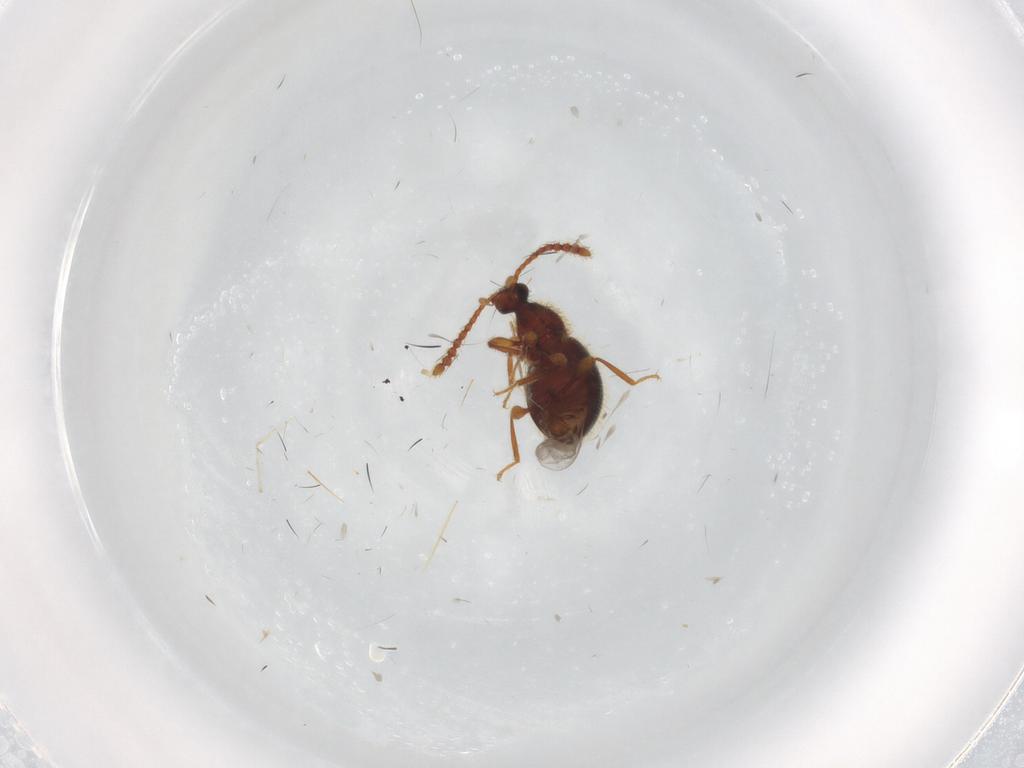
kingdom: Animalia
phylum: Arthropoda
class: Insecta
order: Coleoptera
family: Staphylinidae
